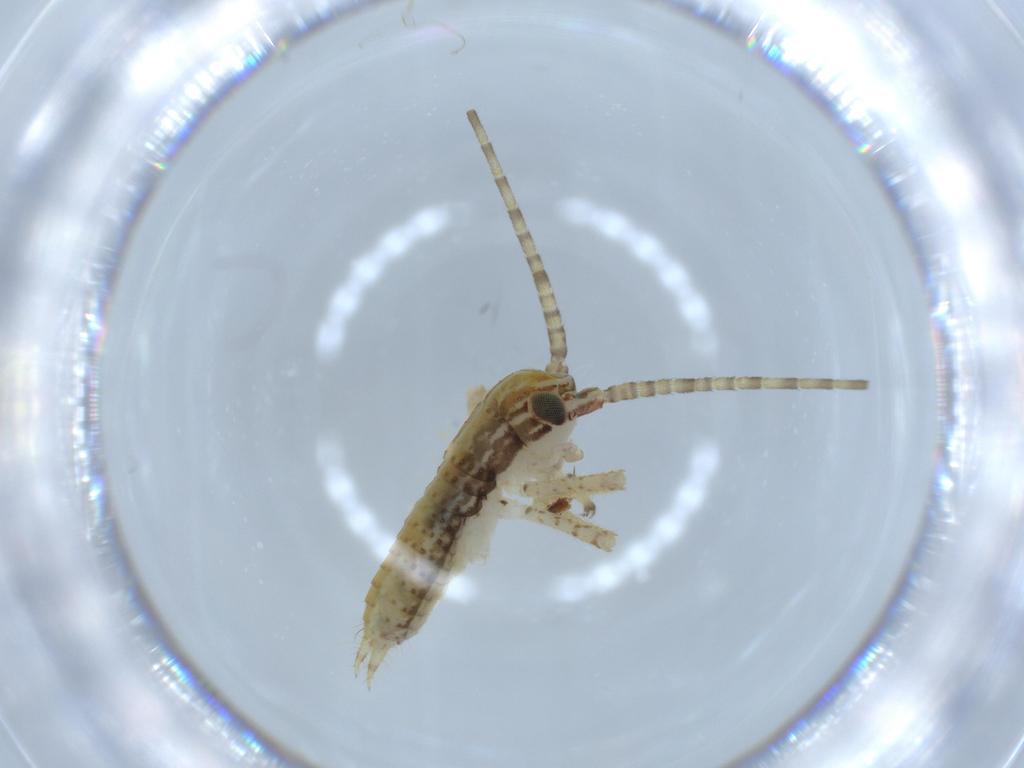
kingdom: Animalia
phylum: Arthropoda
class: Insecta
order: Orthoptera
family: Gryllidae
